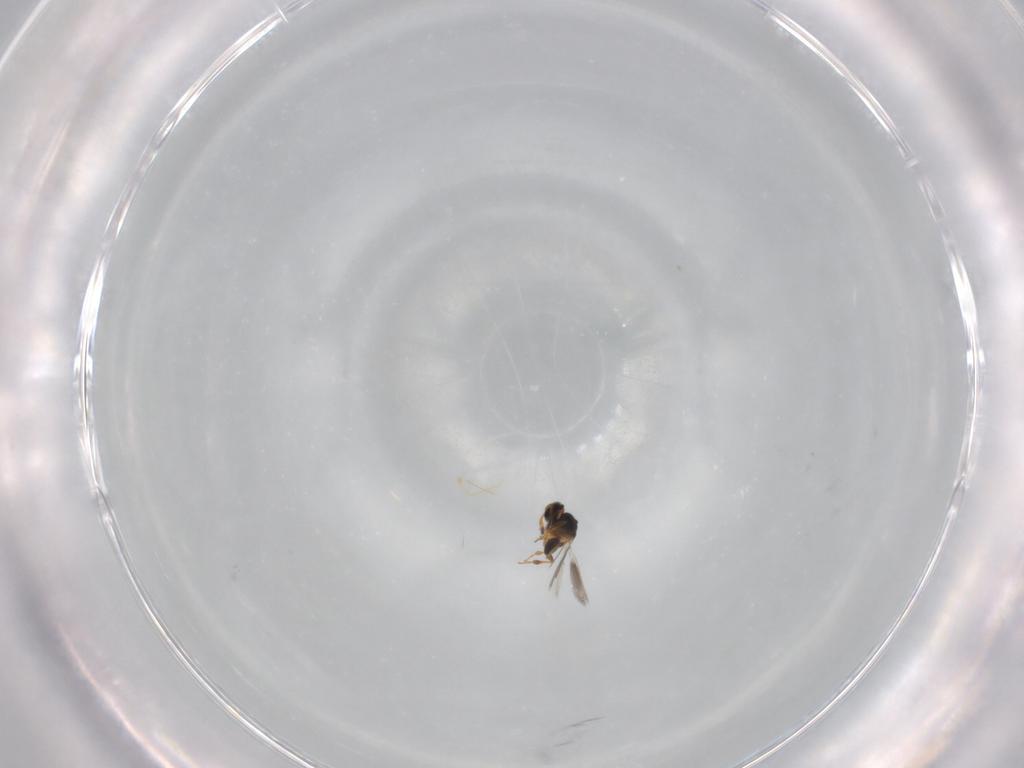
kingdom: Animalia
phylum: Arthropoda
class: Insecta
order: Hymenoptera
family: Platygastridae
